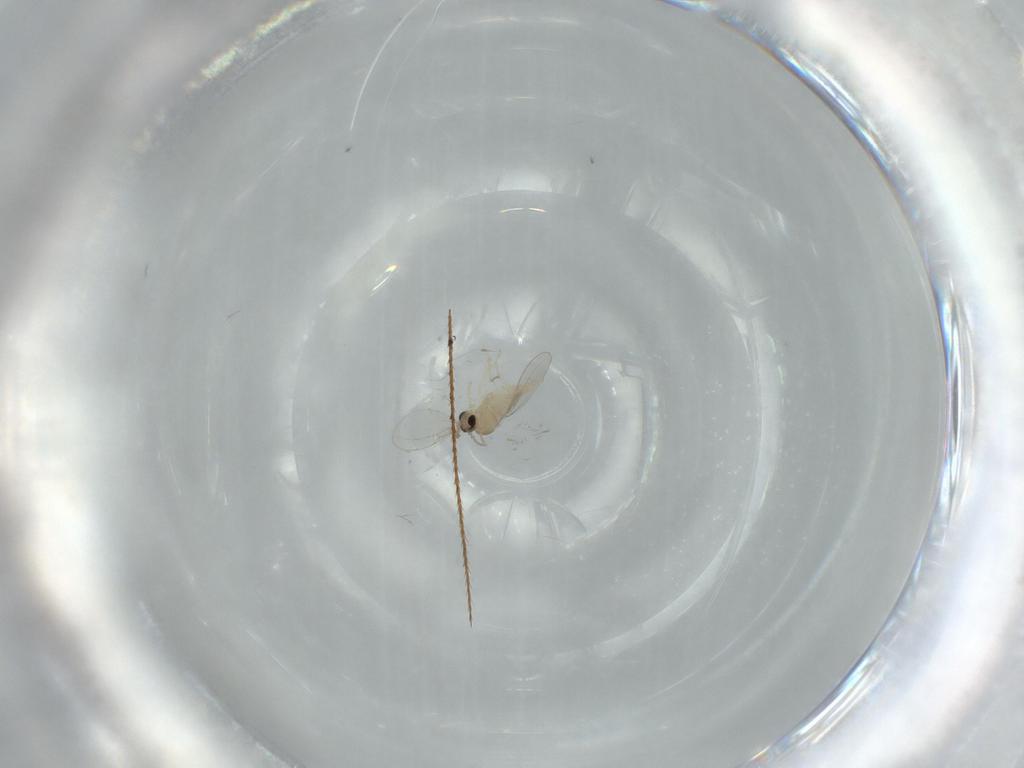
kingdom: Animalia
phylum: Arthropoda
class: Insecta
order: Diptera
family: Cecidomyiidae
